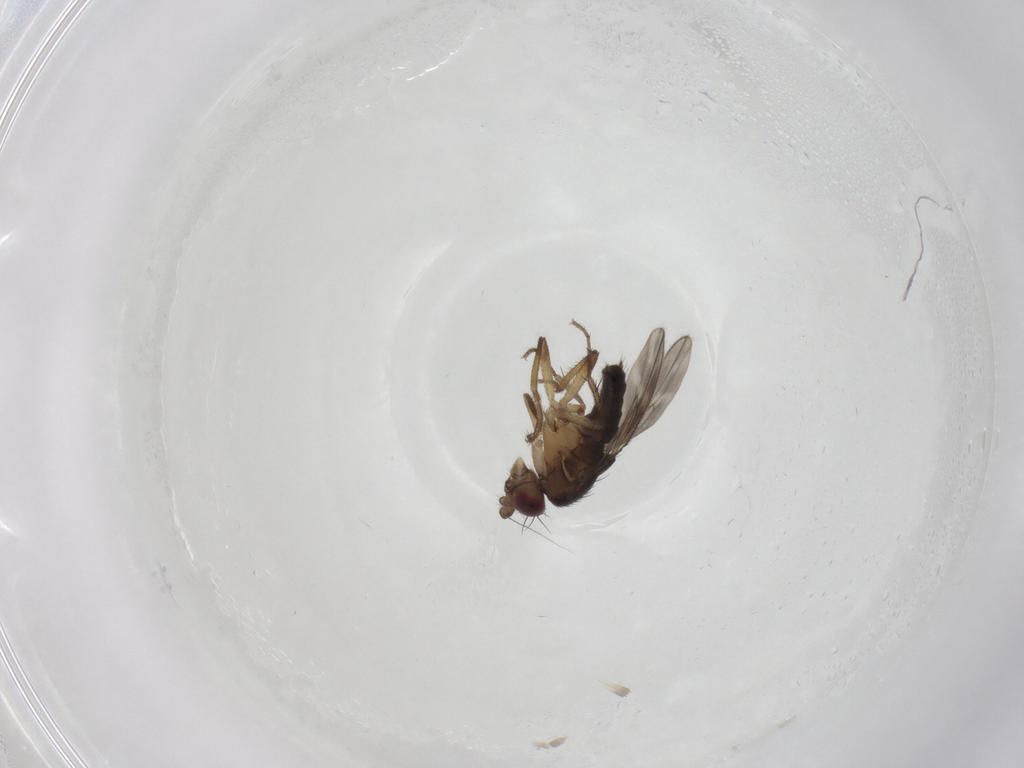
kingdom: Animalia
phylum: Arthropoda
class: Insecta
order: Diptera
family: Sphaeroceridae
